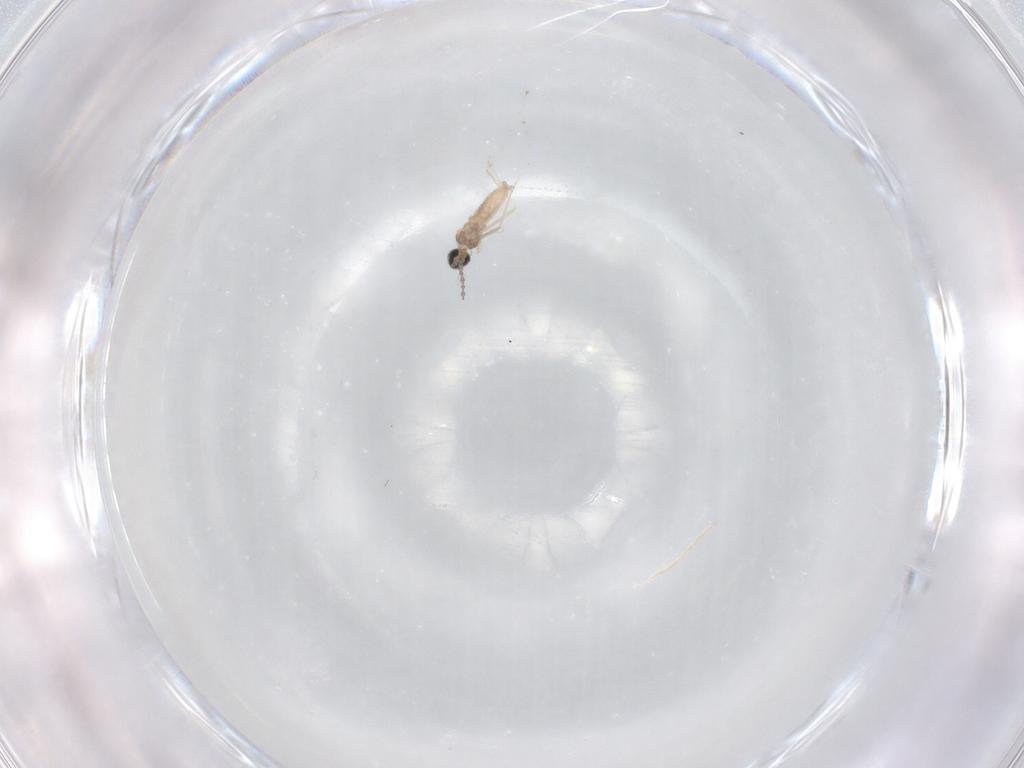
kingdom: Animalia
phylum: Arthropoda
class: Insecta
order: Diptera
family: Cecidomyiidae
